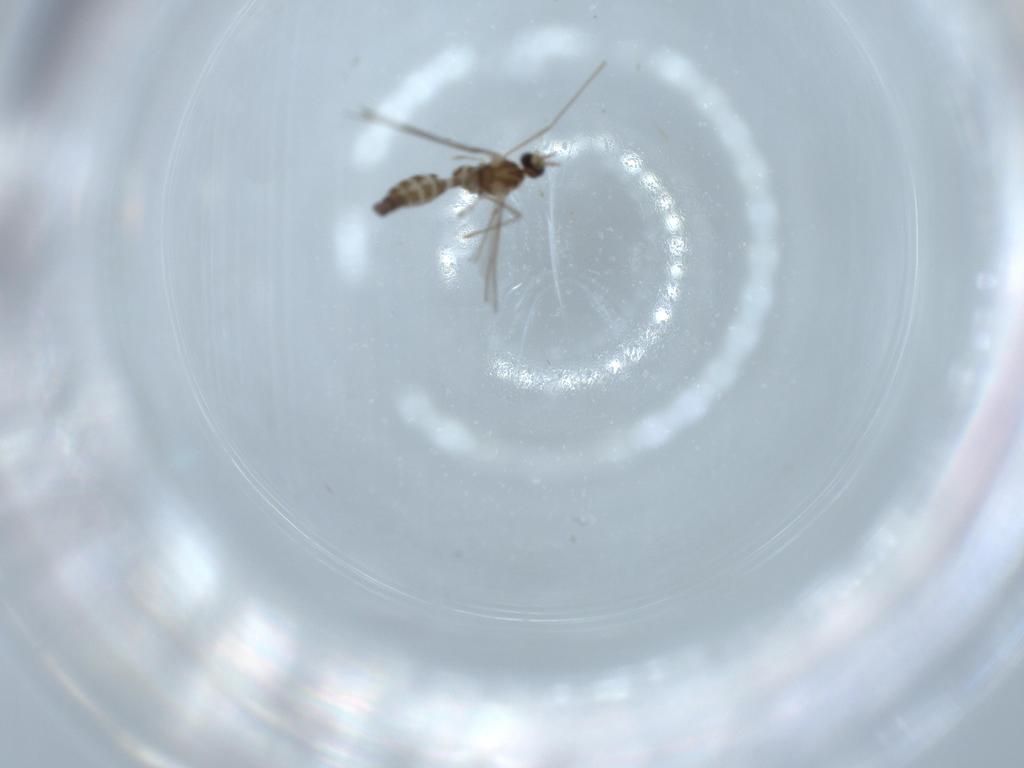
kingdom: Animalia
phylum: Arthropoda
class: Insecta
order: Diptera
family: Cecidomyiidae
